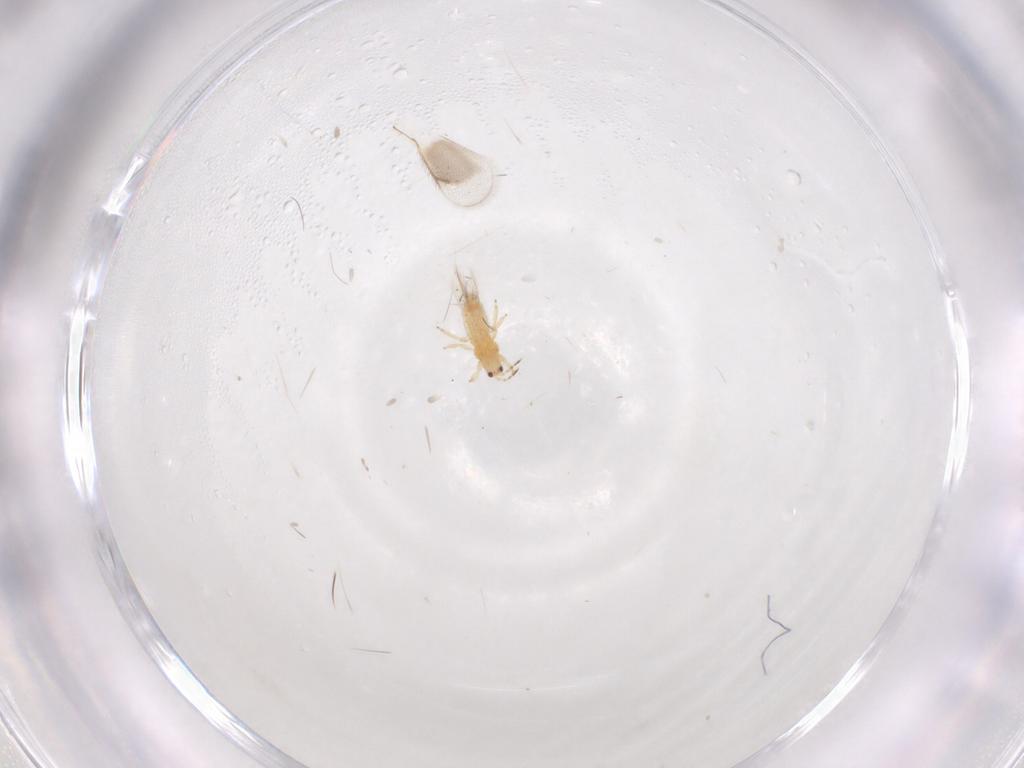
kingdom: Animalia
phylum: Arthropoda
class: Insecta
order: Thysanoptera
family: Thripidae
